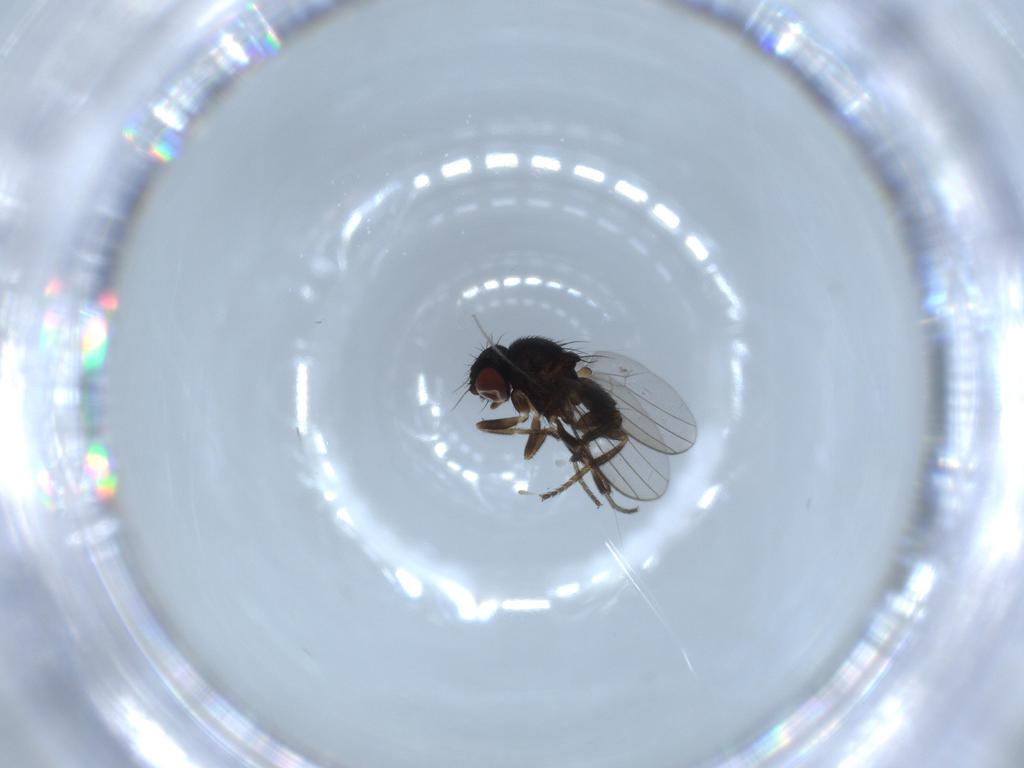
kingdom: Animalia
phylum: Arthropoda
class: Insecta
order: Diptera
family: Milichiidae
